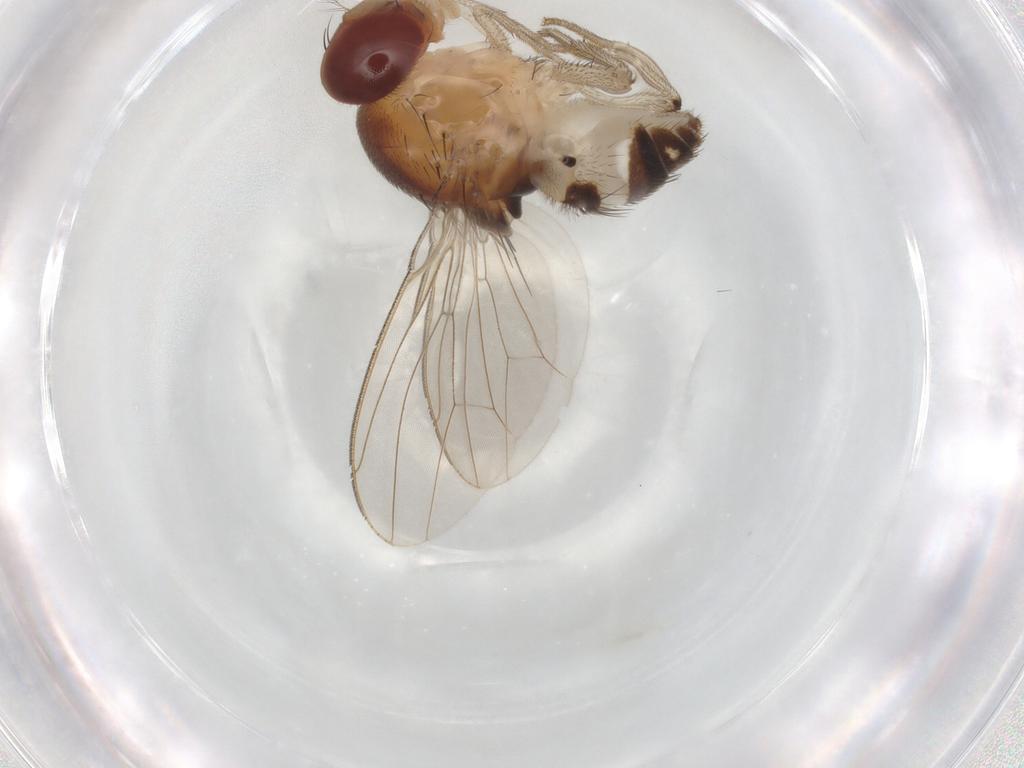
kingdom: Animalia
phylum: Arthropoda
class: Insecta
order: Diptera
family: Drosophilidae
